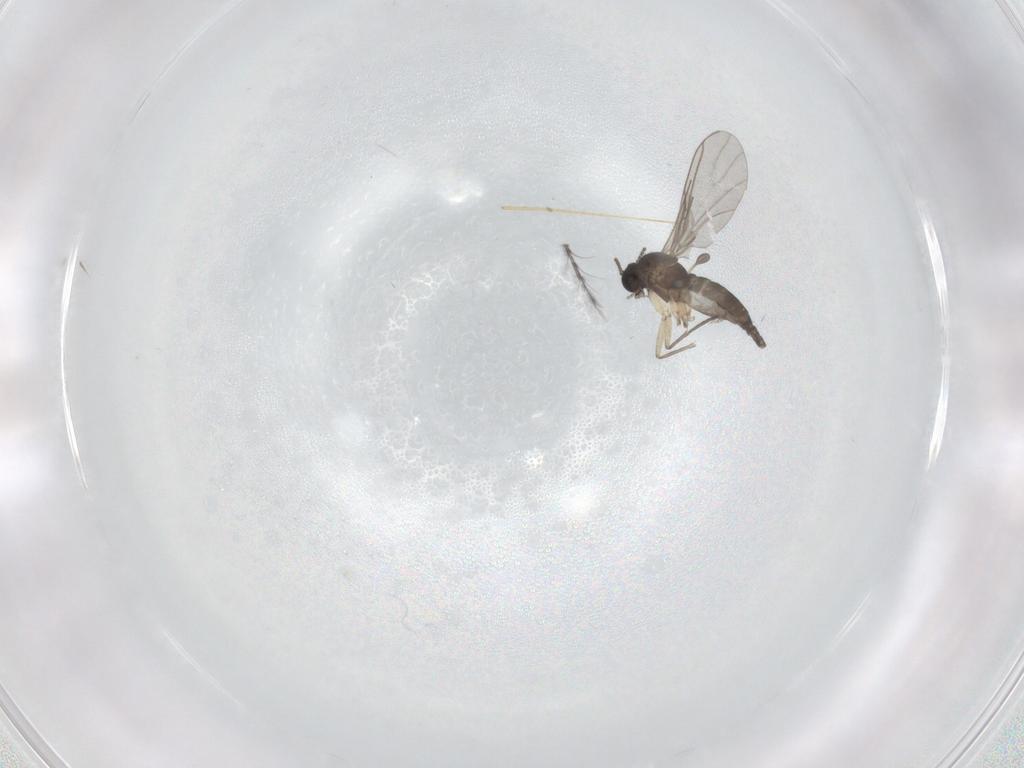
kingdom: Animalia
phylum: Arthropoda
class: Insecta
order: Diptera
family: Sciaridae
